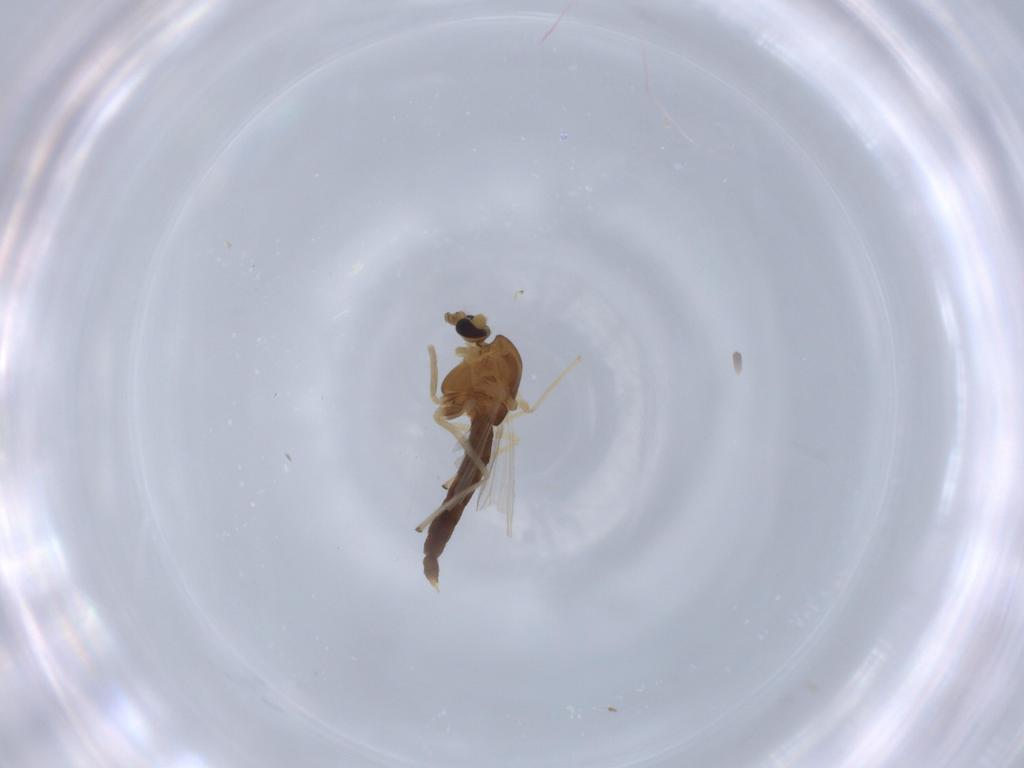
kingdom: Animalia
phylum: Arthropoda
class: Insecta
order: Diptera
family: Chironomidae
